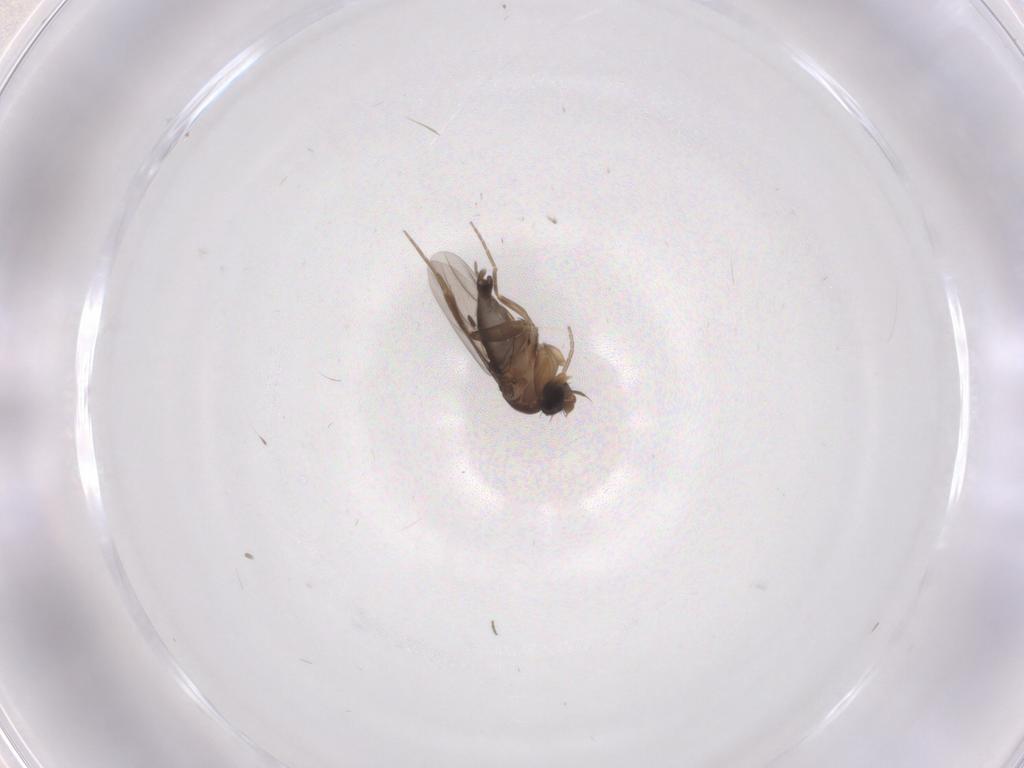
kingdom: Animalia
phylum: Arthropoda
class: Insecta
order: Diptera
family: Phoridae
